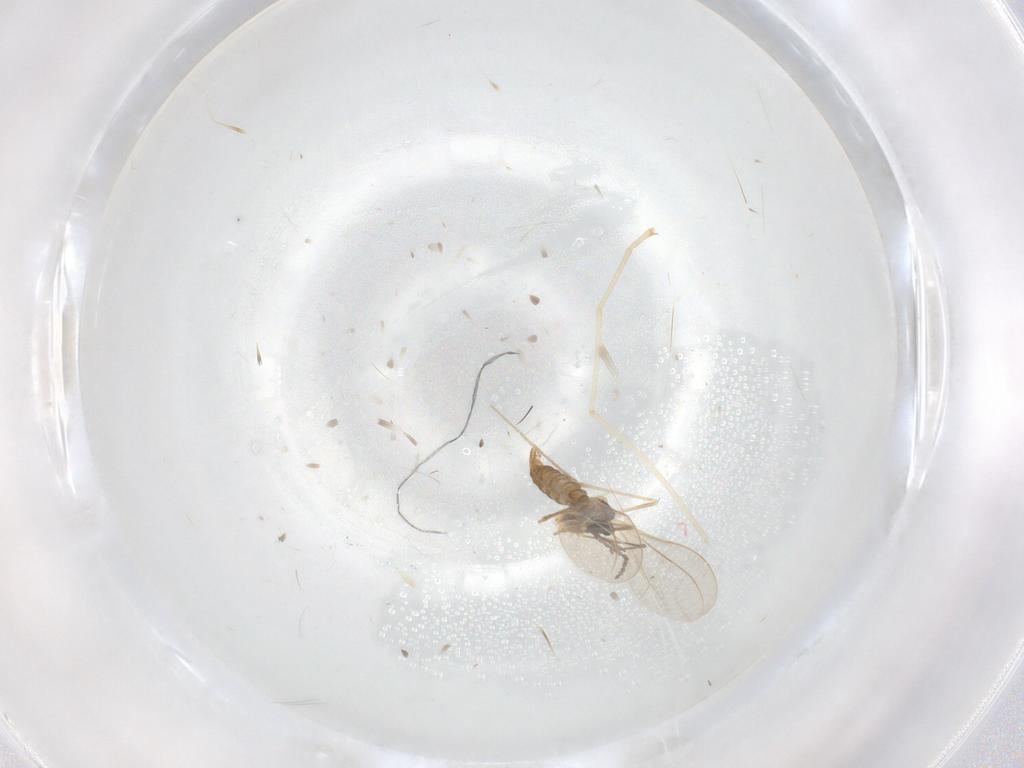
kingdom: Animalia
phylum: Arthropoda
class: Insecta
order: Diptera
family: Cecidomyiidae
